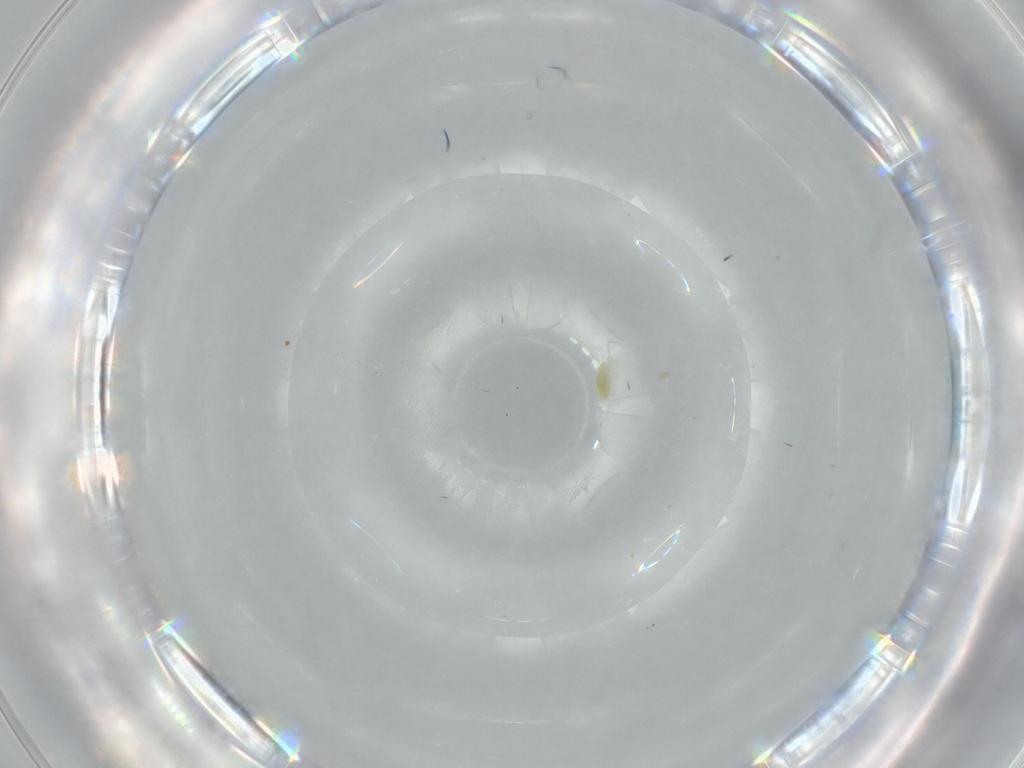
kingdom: Animalia
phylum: Arthropoda
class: Arachnida
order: Trombidiformes
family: Eupodidae
